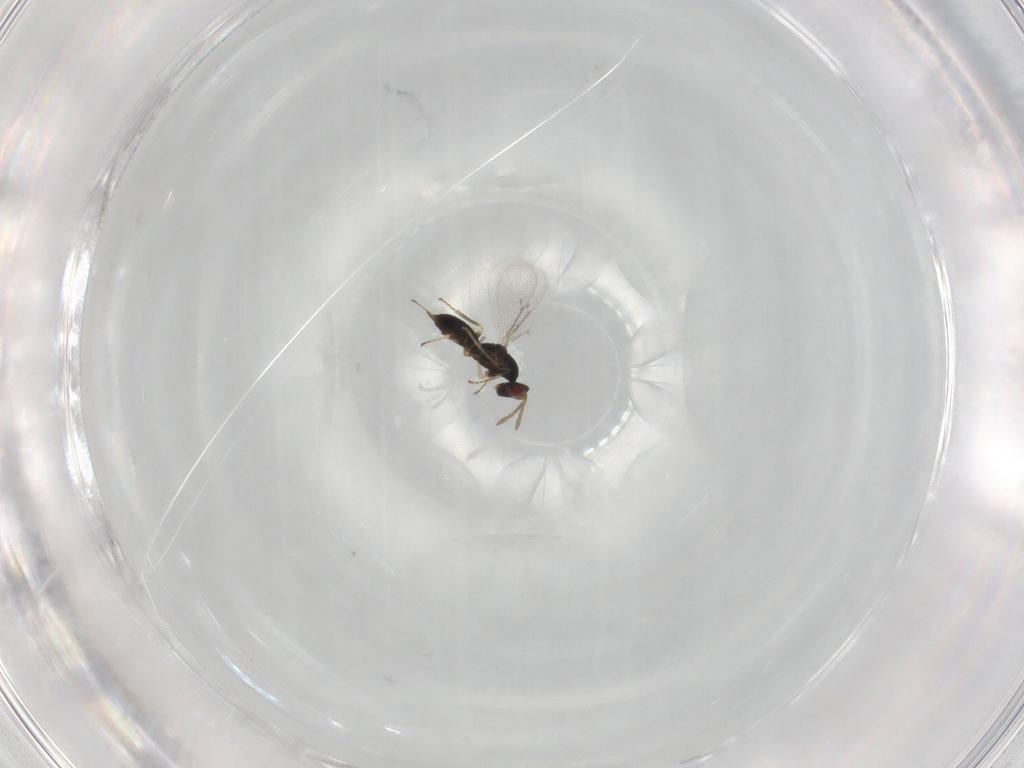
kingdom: Animalia
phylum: Arthropoda
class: Insecta
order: Hymenoptera
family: Eulophidae
